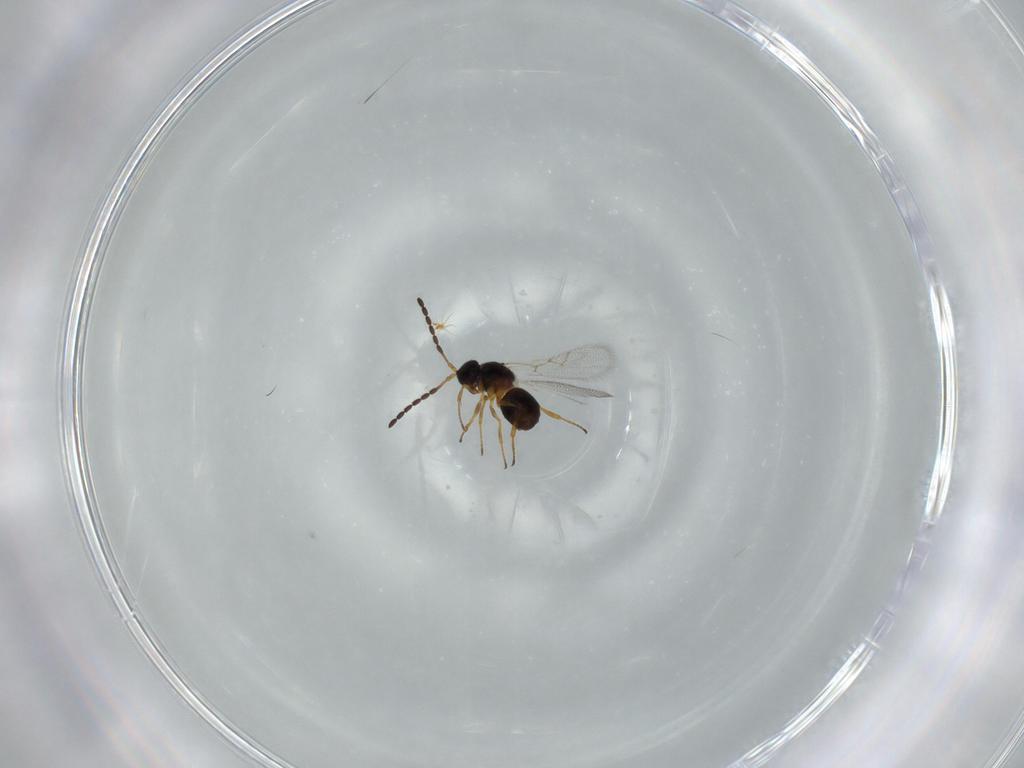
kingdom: Animalia
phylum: Arthropoda
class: Insecta
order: Hymenoptera
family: Figitidae
